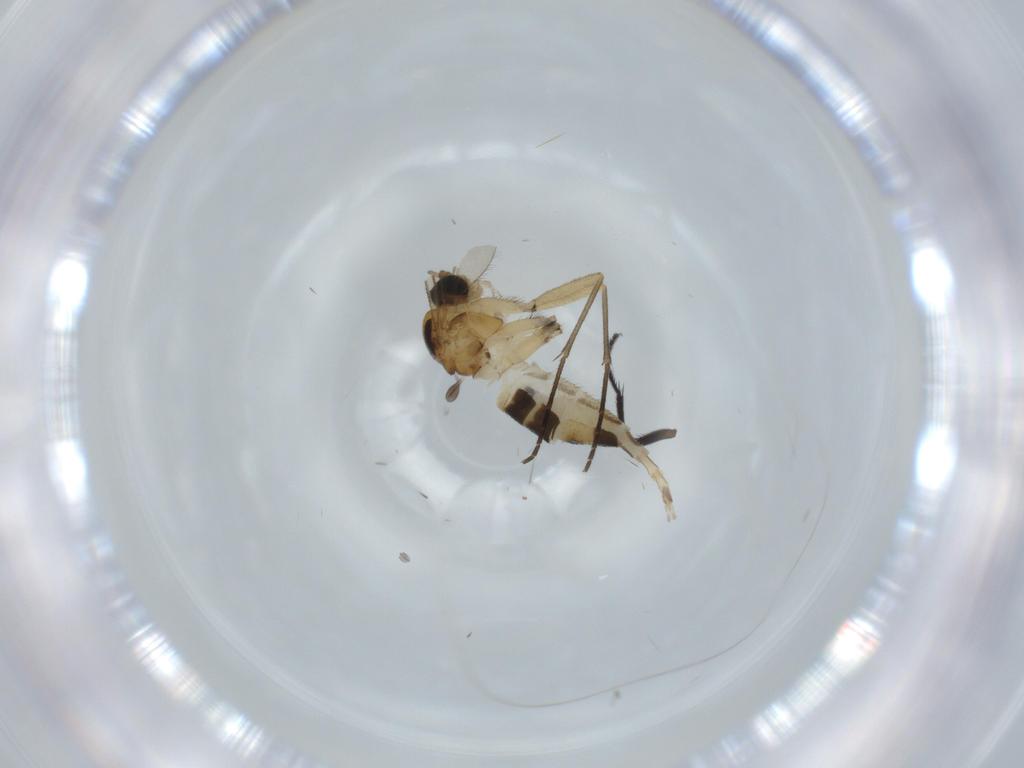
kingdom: Animalia
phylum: Arthropoda
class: Insecta
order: Diptera
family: Milichiidae
